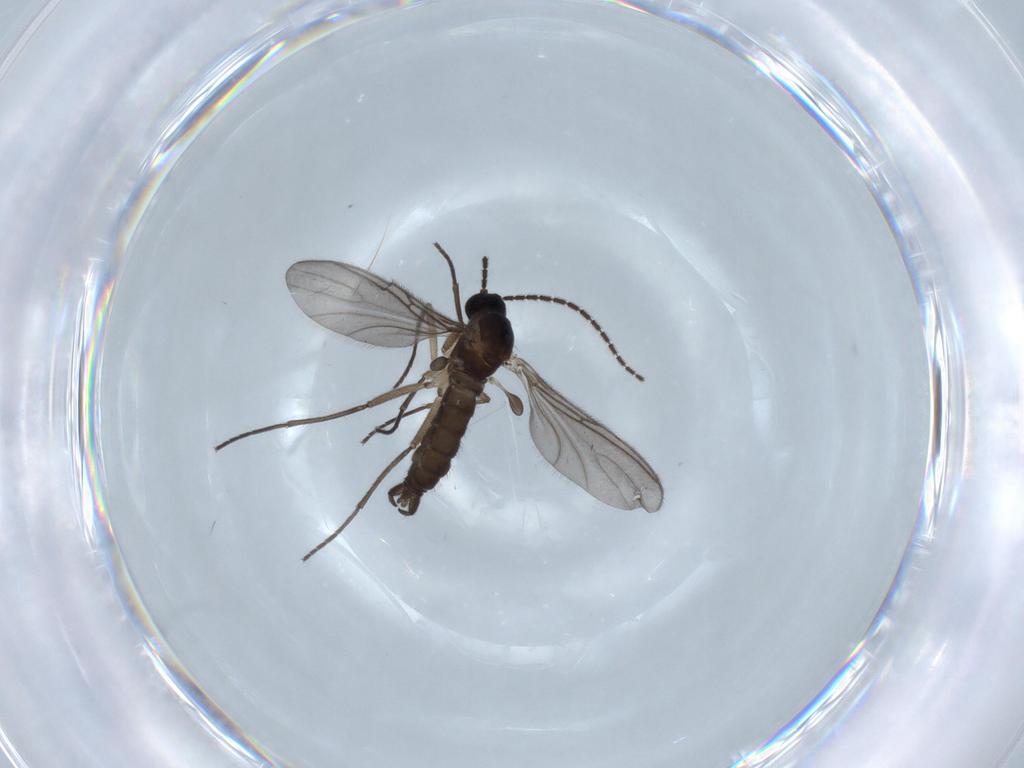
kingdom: Animalia
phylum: Arthropoda
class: Insecta
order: Diptera
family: Sciaridae
